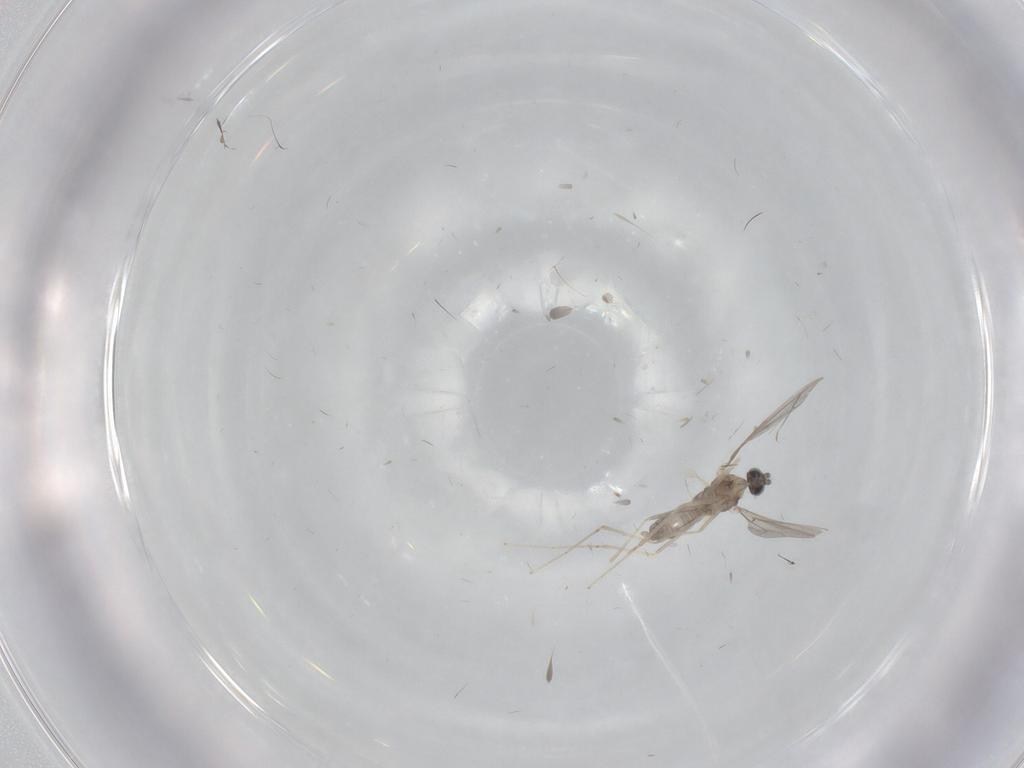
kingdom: Animalia
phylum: Arthropoda
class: Insecta
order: Diptera
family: Cecidomyiidae
